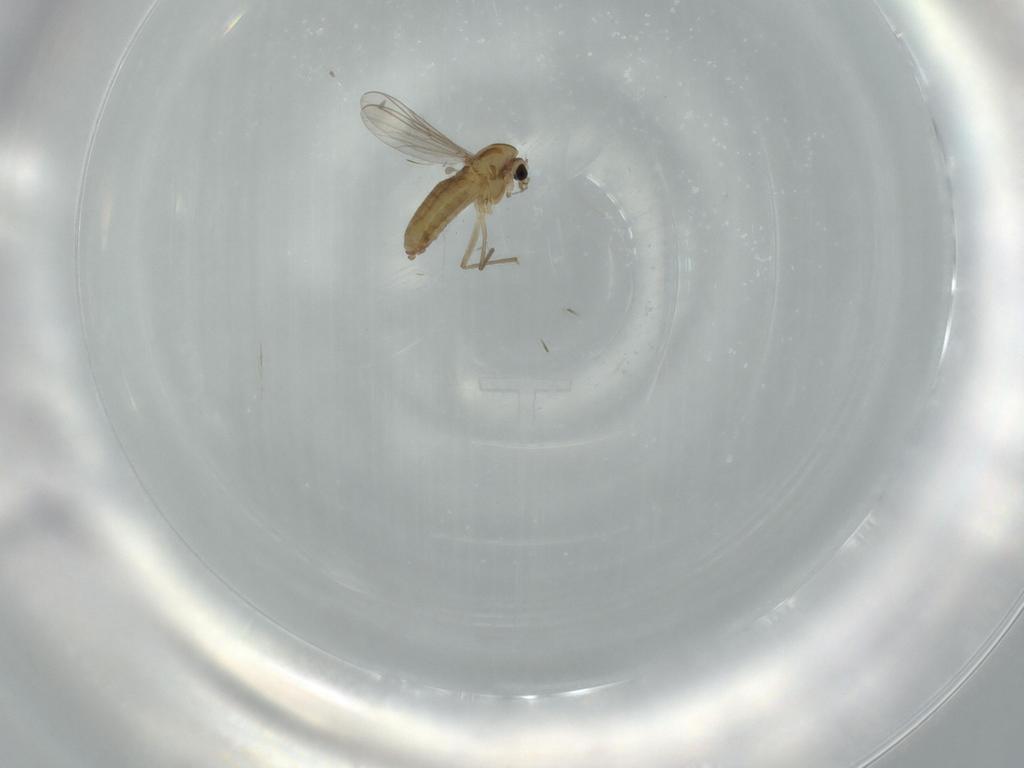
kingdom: Animalia
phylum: Arthropoda
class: Insecta
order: Diptera
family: Chironomidae
